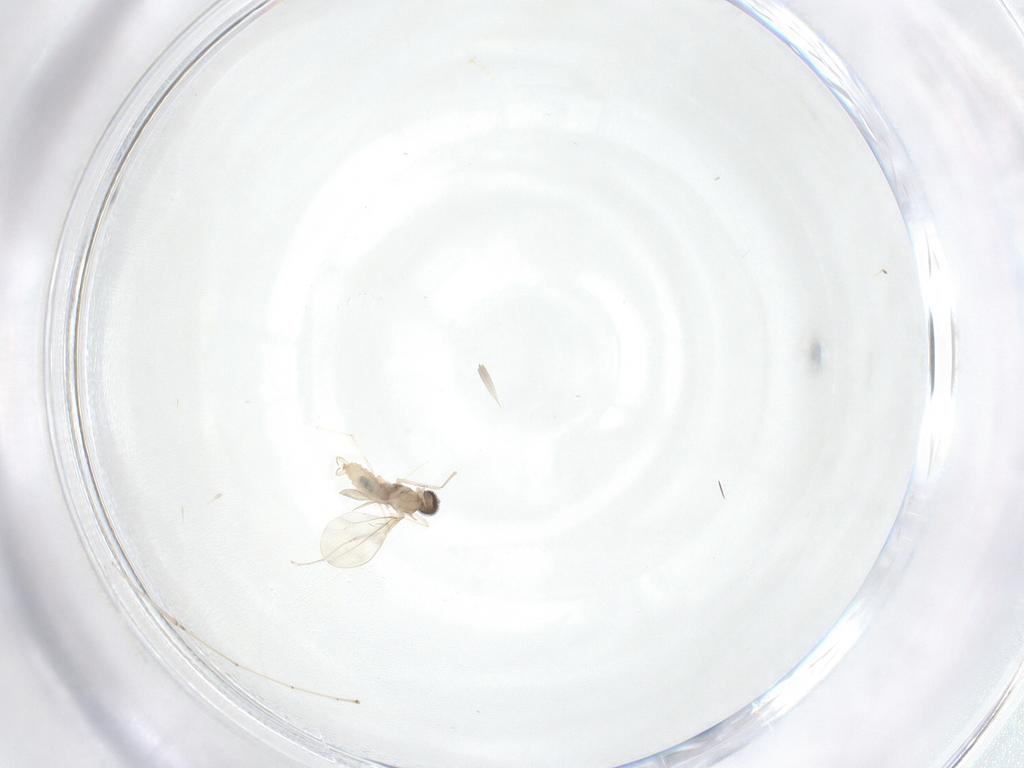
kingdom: Animalia
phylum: Arthropoda
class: Insecta
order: Diptera
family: Cecidomyiidae
